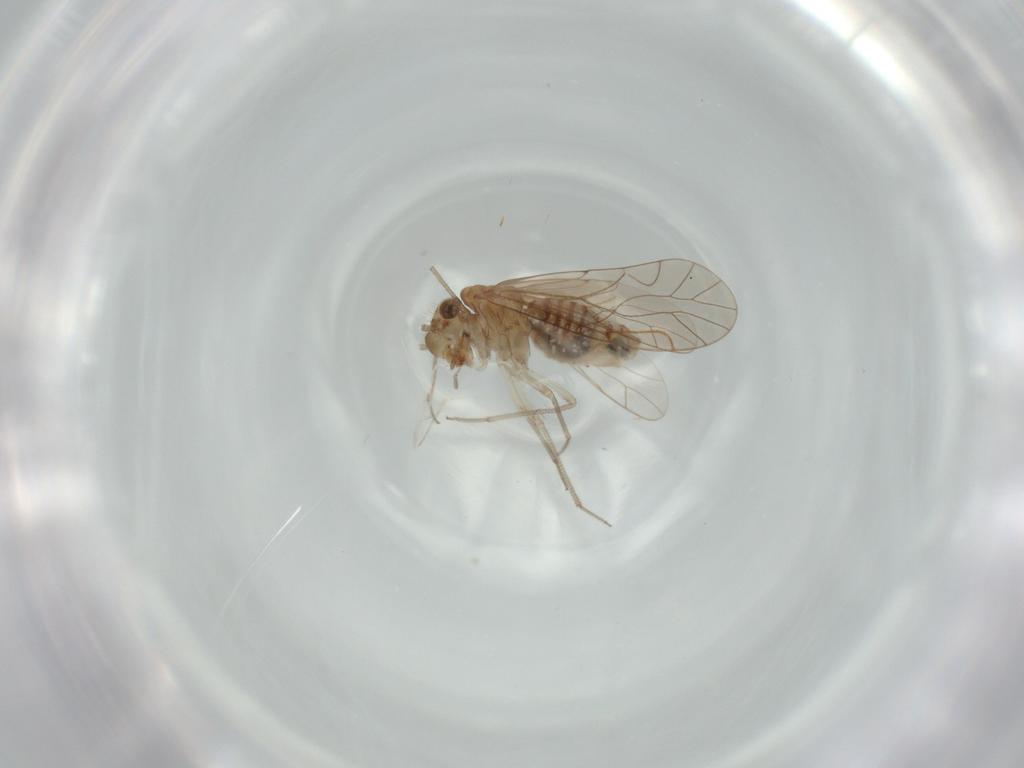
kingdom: Animalia
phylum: Arthropoda
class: Insecta
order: Psocodea
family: Lachesillidae
